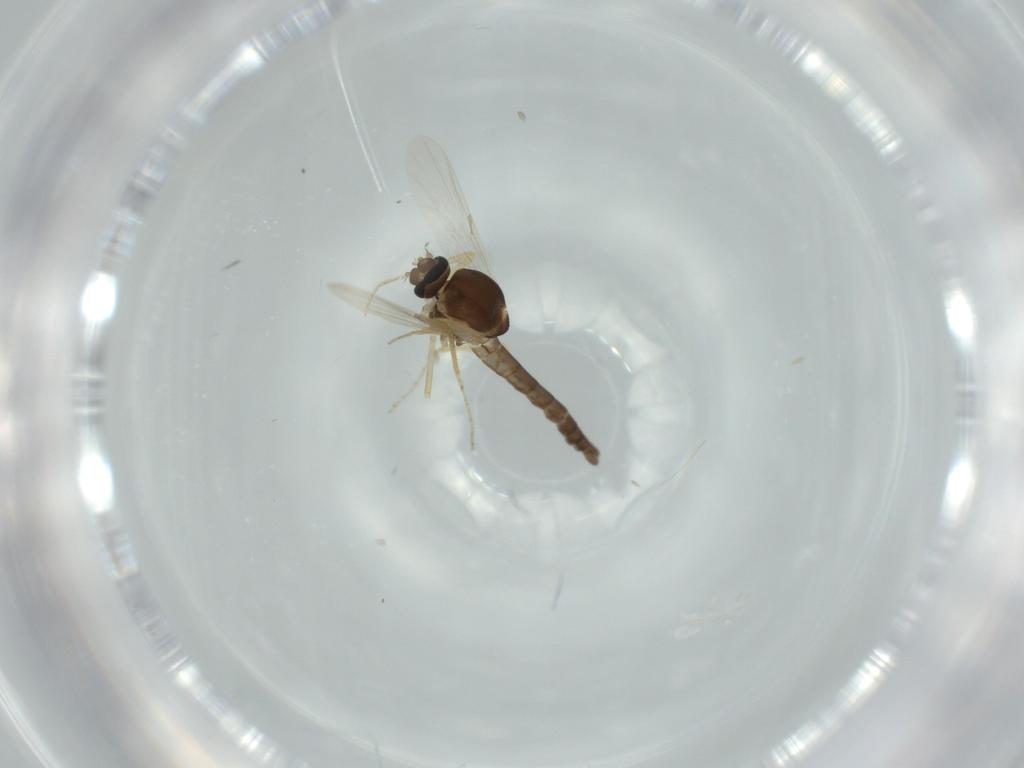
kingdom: Animalia
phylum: Arthropoda
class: Insecta
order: Diptera
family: Ceratopogonidae
